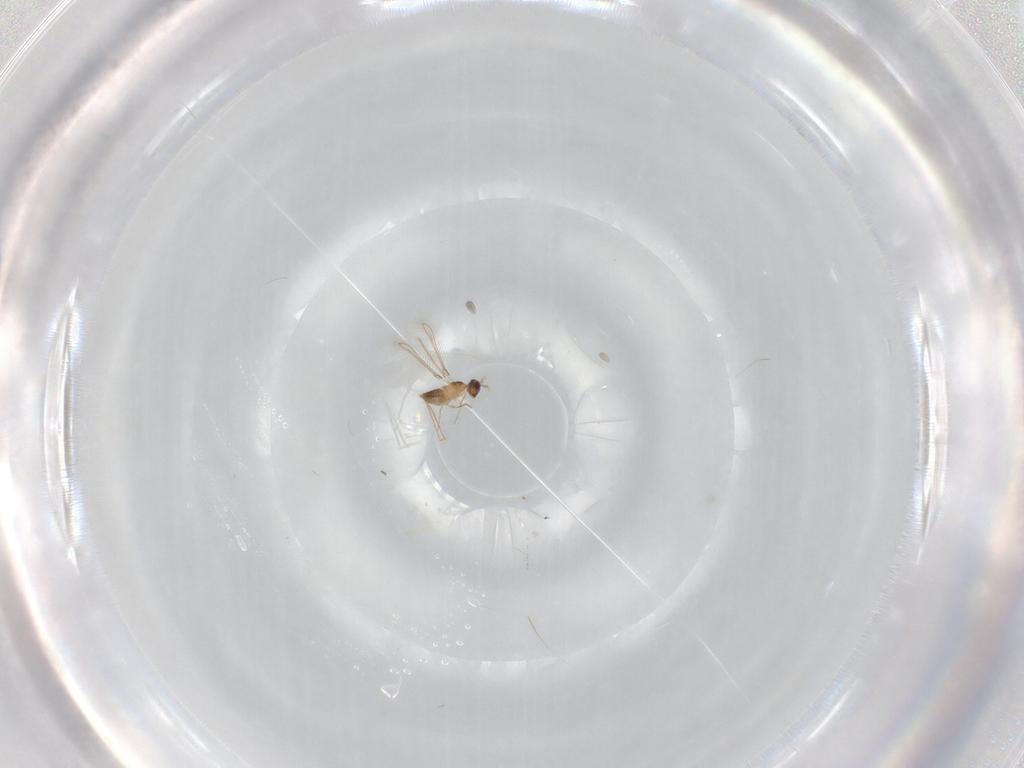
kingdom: Animalia
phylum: Arthropoda
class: Insecta
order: Hymenoptera
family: Mymaridae
